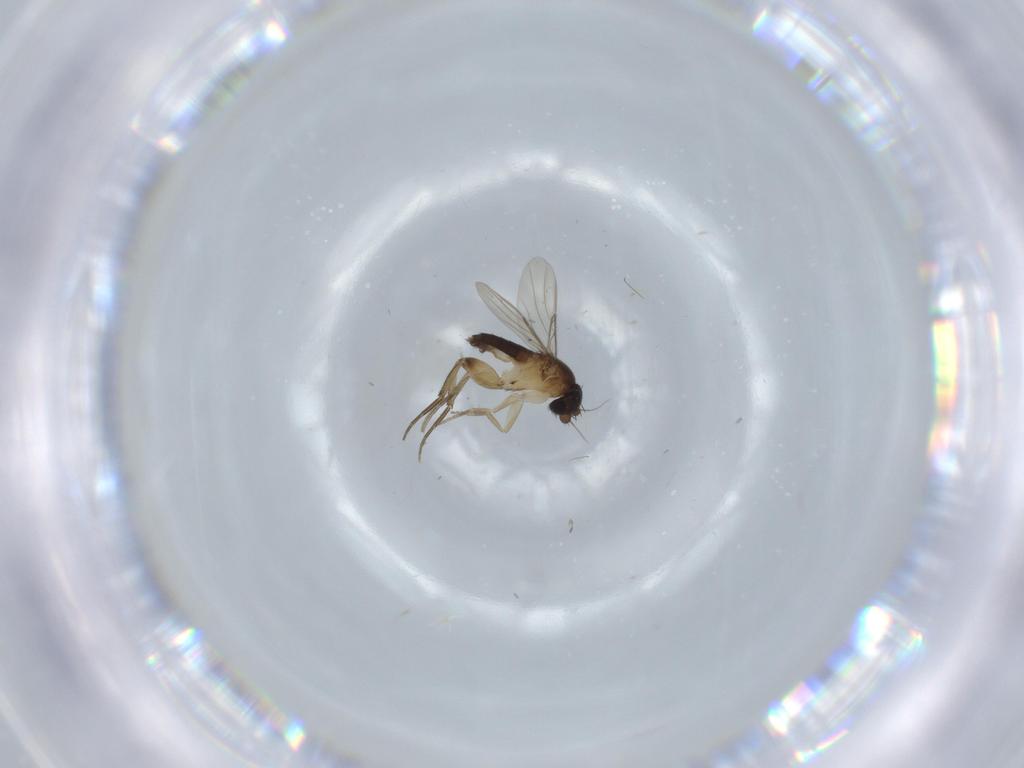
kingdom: Animalia
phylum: Arthropoda
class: Insecta
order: Diptera
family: Phoridae
